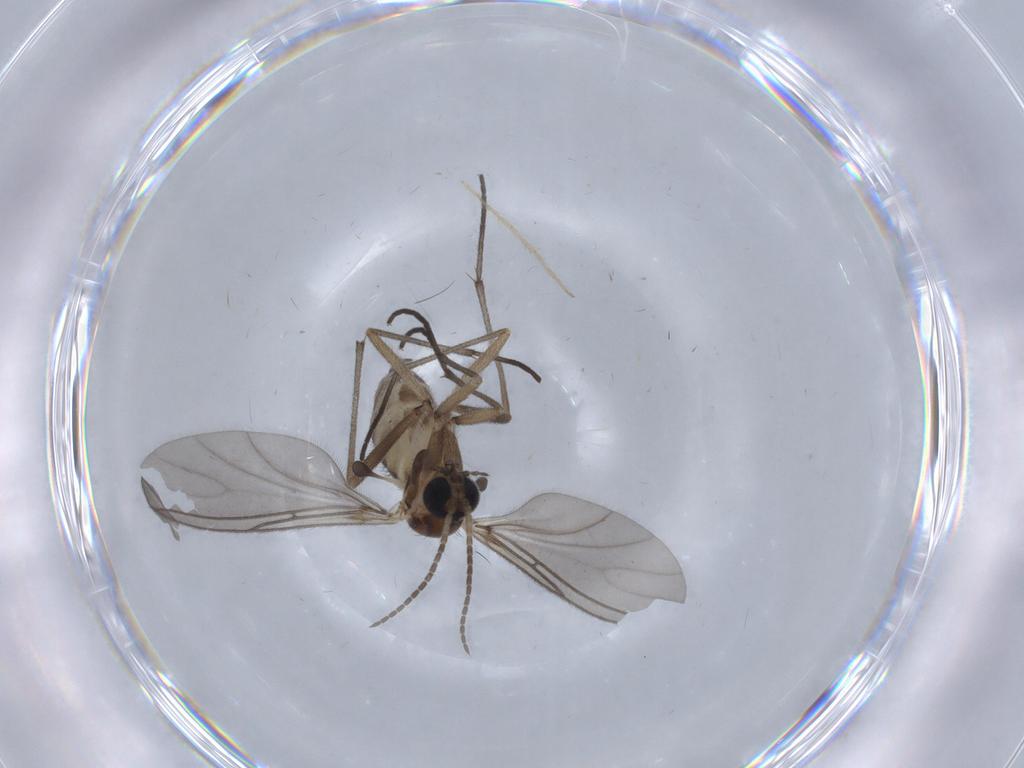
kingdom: Animalia
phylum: Arthropoda
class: Insecta
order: Diptera
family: Sciaridae
